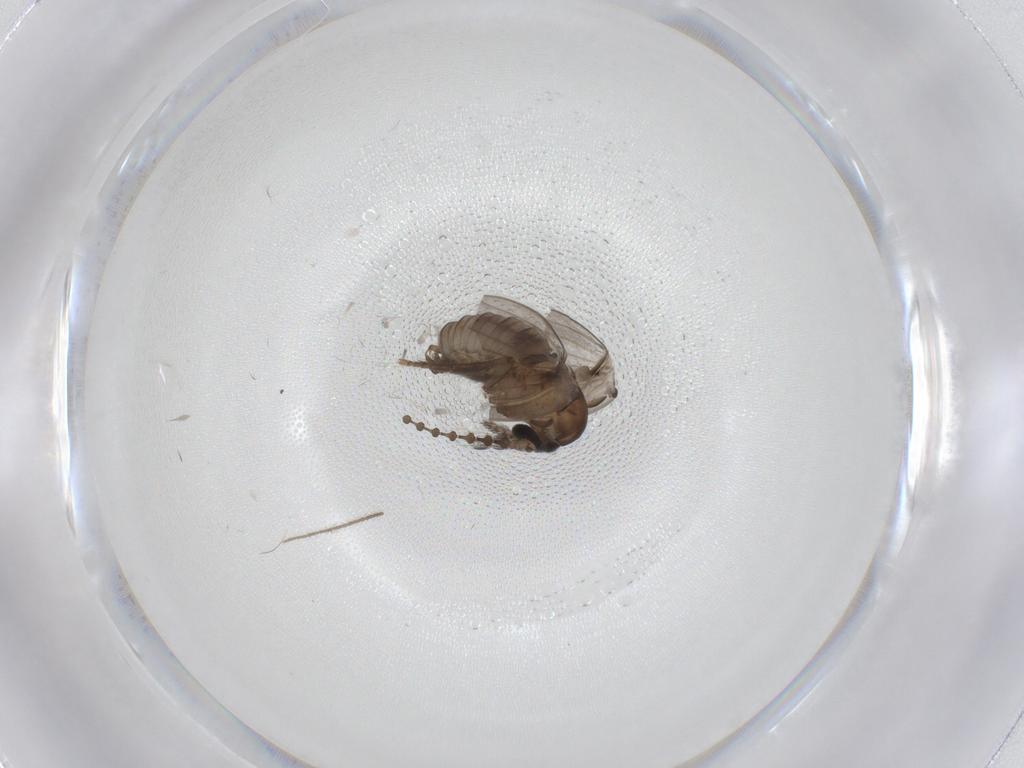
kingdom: Animalia
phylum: Arthropoda
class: Insecta
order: Diptera
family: Psychodidae
